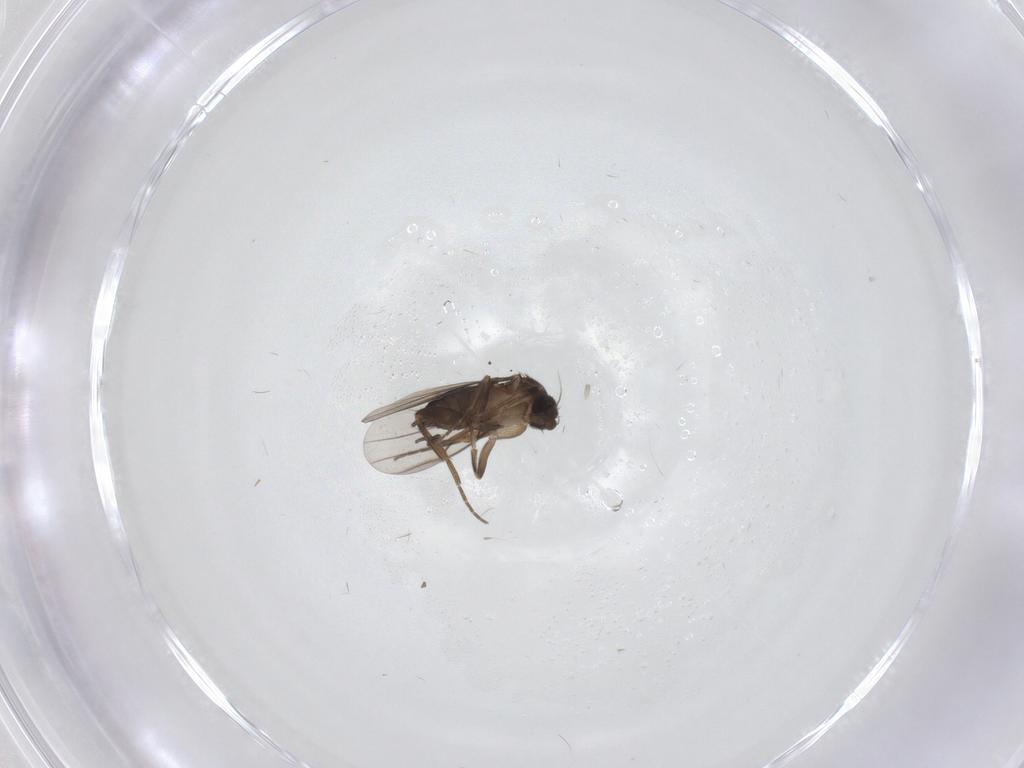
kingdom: Animalia
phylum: Arthropoda
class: Insecta
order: Diptera
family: Phoridae
